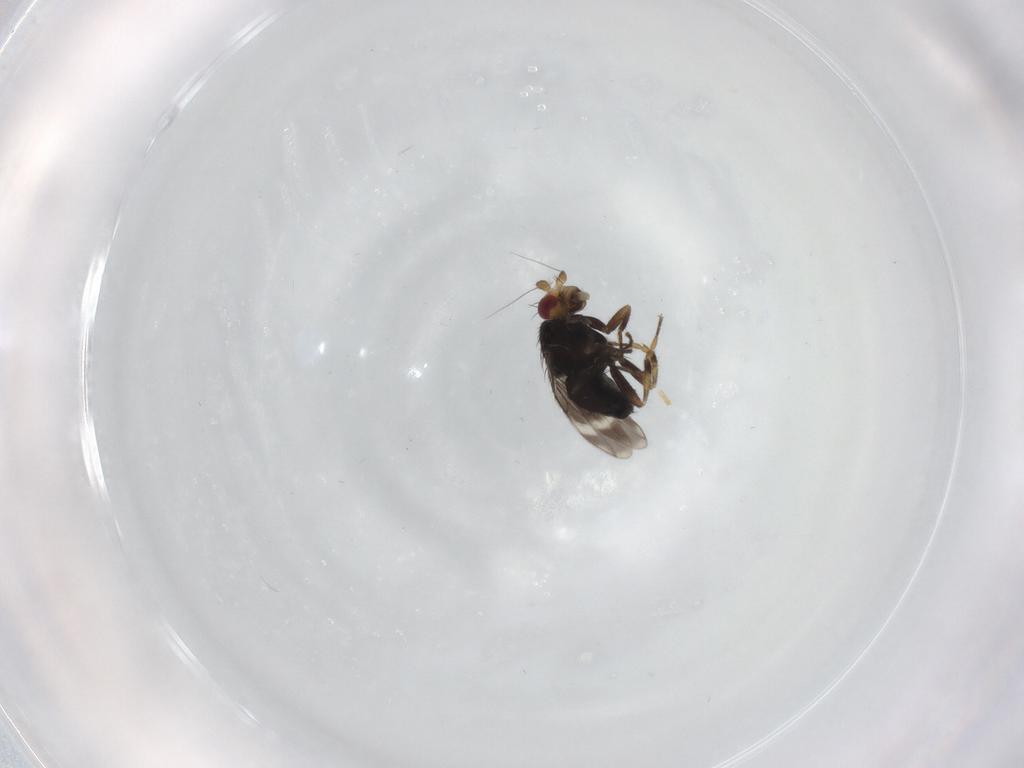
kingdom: Animalia
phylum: Arthropoda
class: Insecta
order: Diptera
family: Sphaeroceridae
